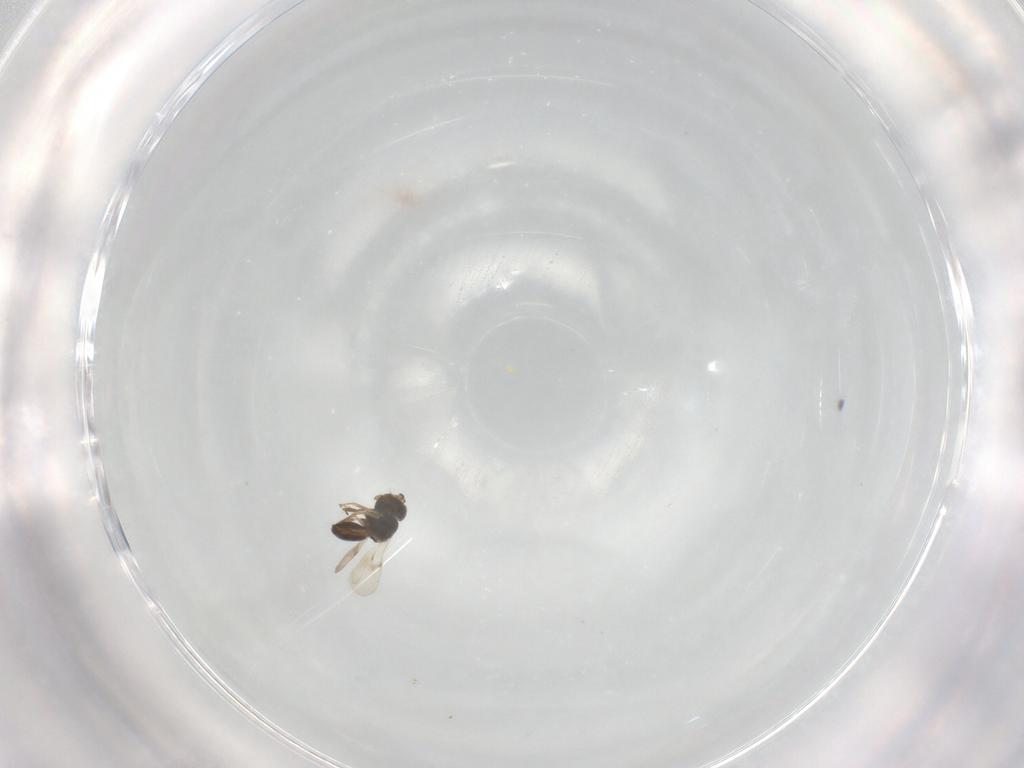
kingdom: Animalia
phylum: Arthropoda
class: Insecta
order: Hymenoptera
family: Scelionidae
